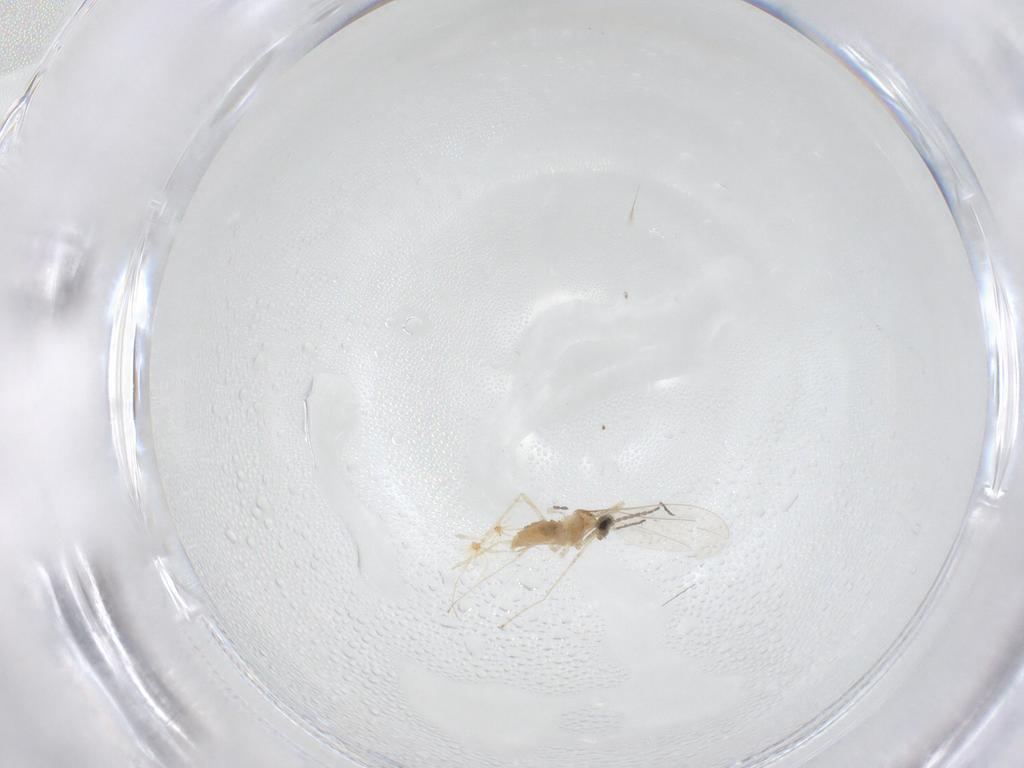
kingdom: Animalia
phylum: Arthropoda
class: Insecta
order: Diptera
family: Cecidomyiidae
